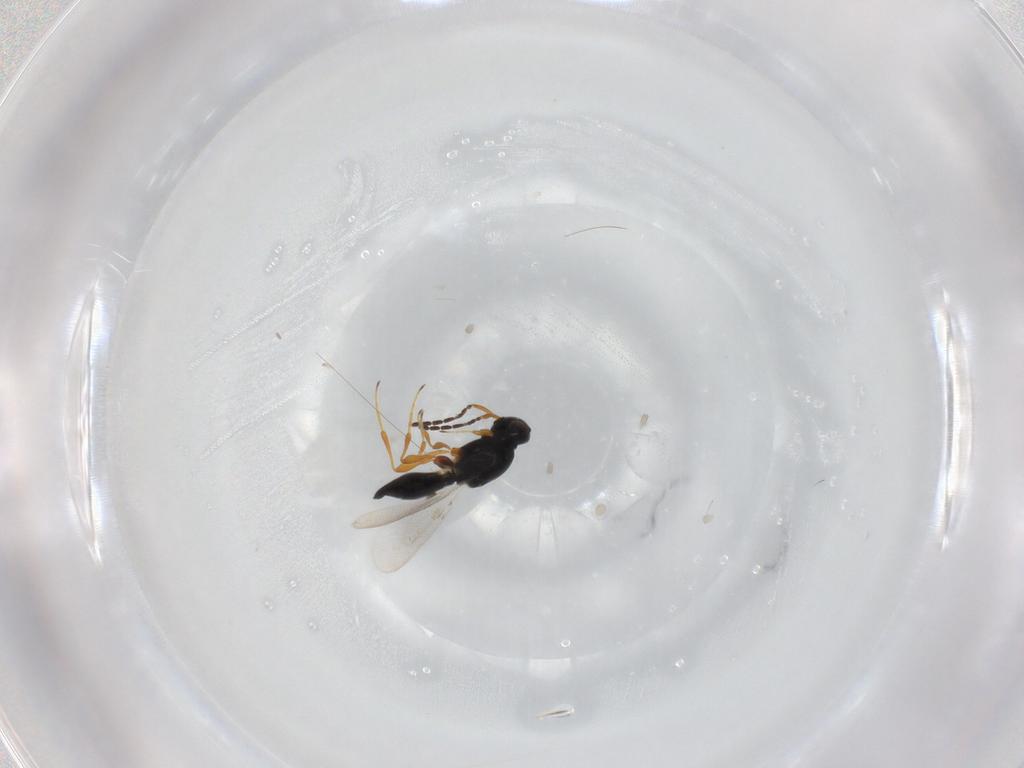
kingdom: Animalia
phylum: Arthropoda
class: Insecta
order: Hymenoptera
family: Platygastridae
